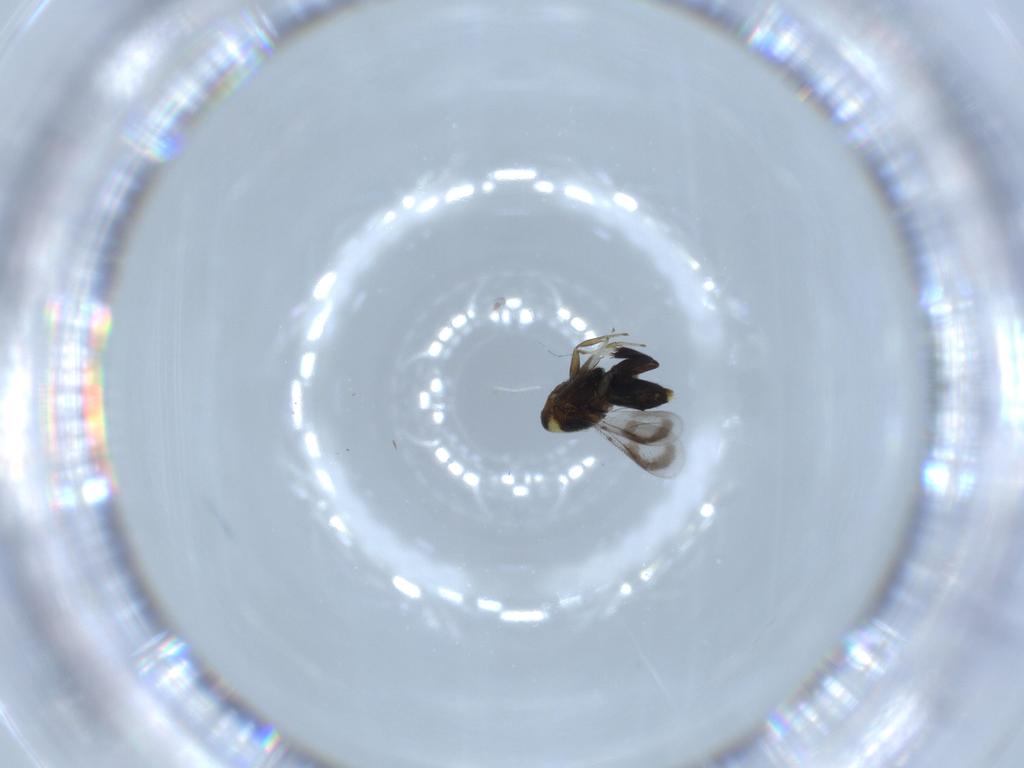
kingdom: Animalia
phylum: Arthropoda
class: Insecta
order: Hymenoptera
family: Aphelinidae
